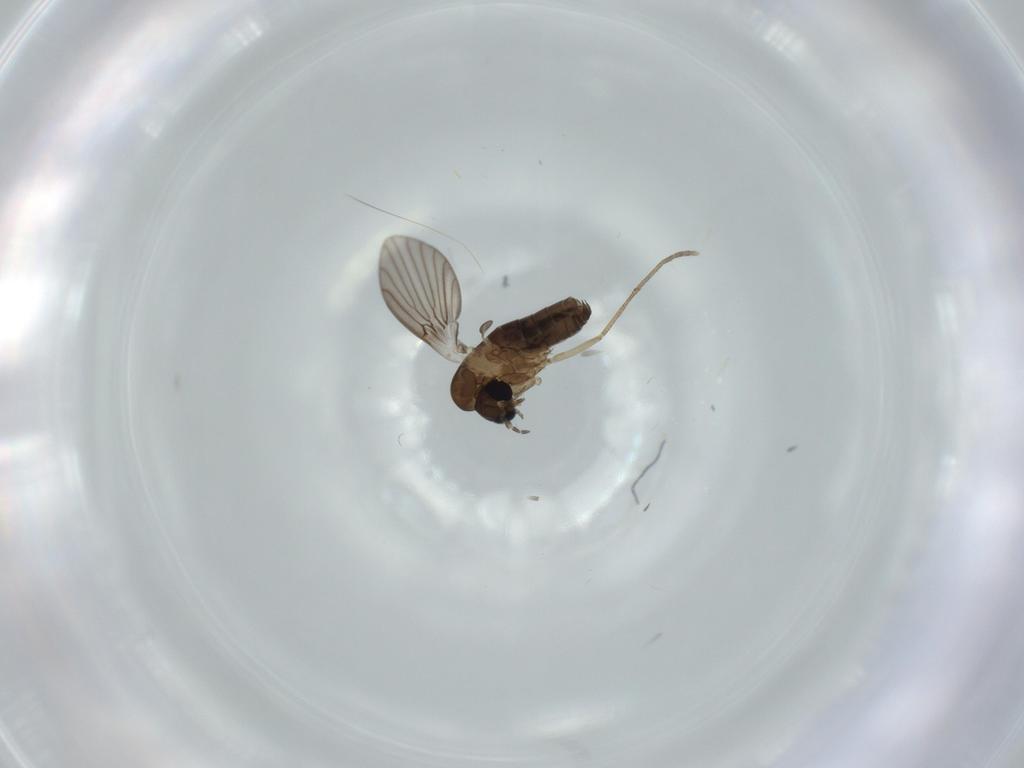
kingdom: Animalia
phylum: Arthropoda
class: Insecta
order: Diptera
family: Psychodidae
